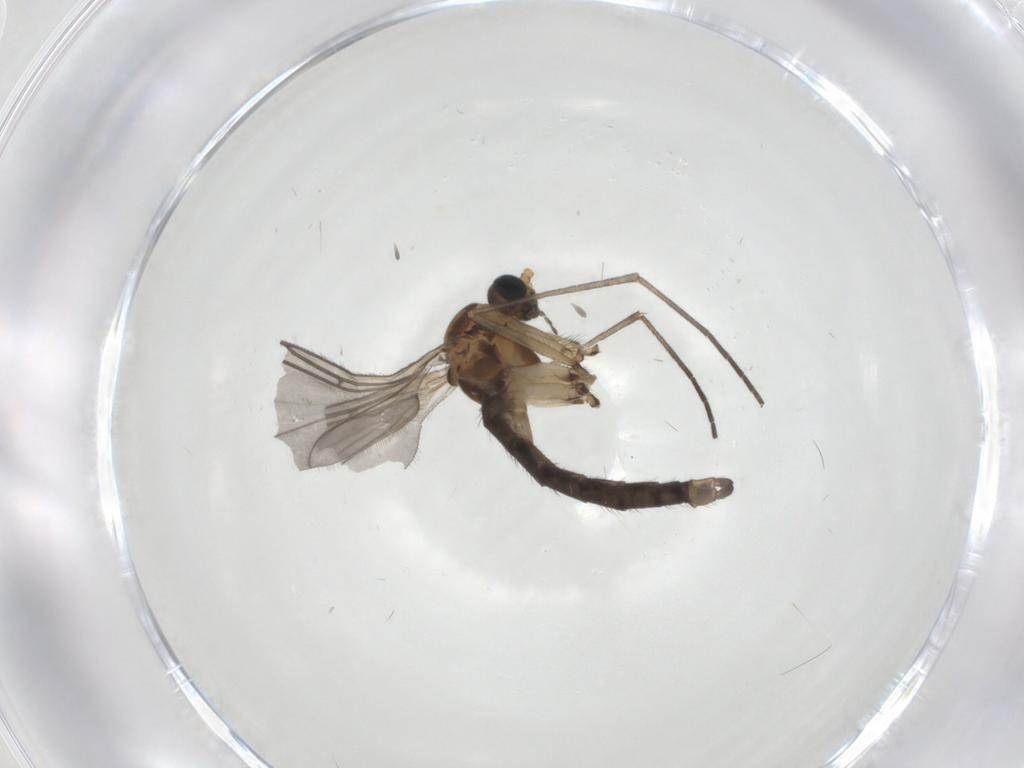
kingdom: Animalia
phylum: Arthropoda
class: Insecta
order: Diptera
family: Sciaridae
